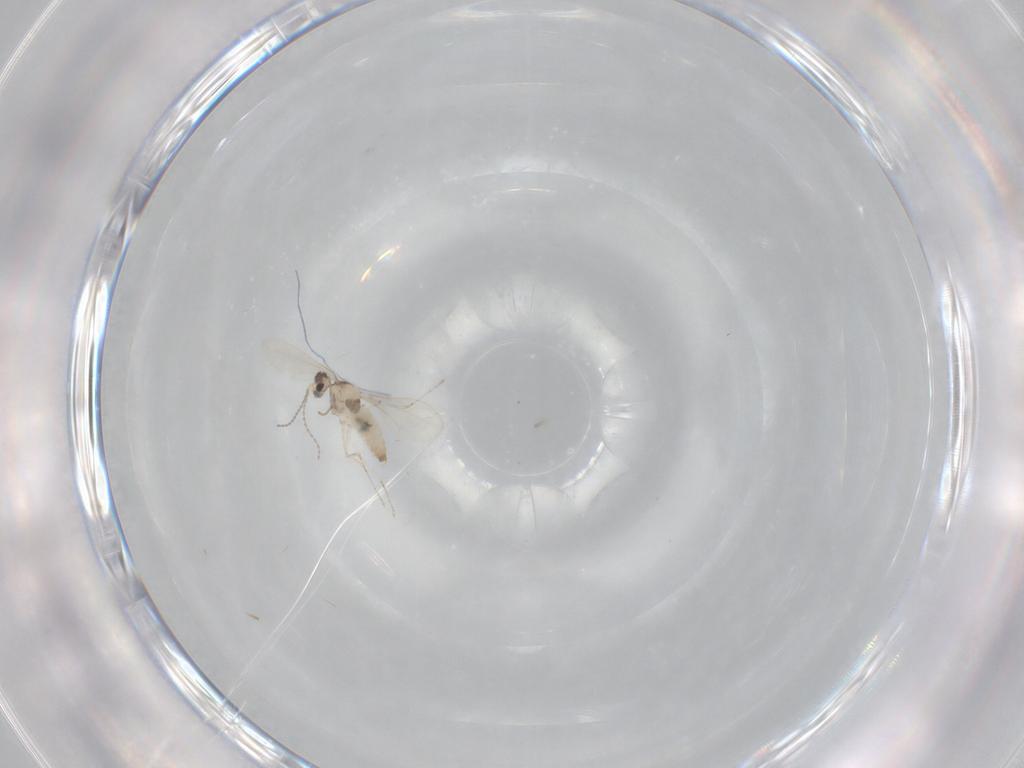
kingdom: Animalia
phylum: Arthropoda
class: Insecta
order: Diptera
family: Cecidomyiidae
